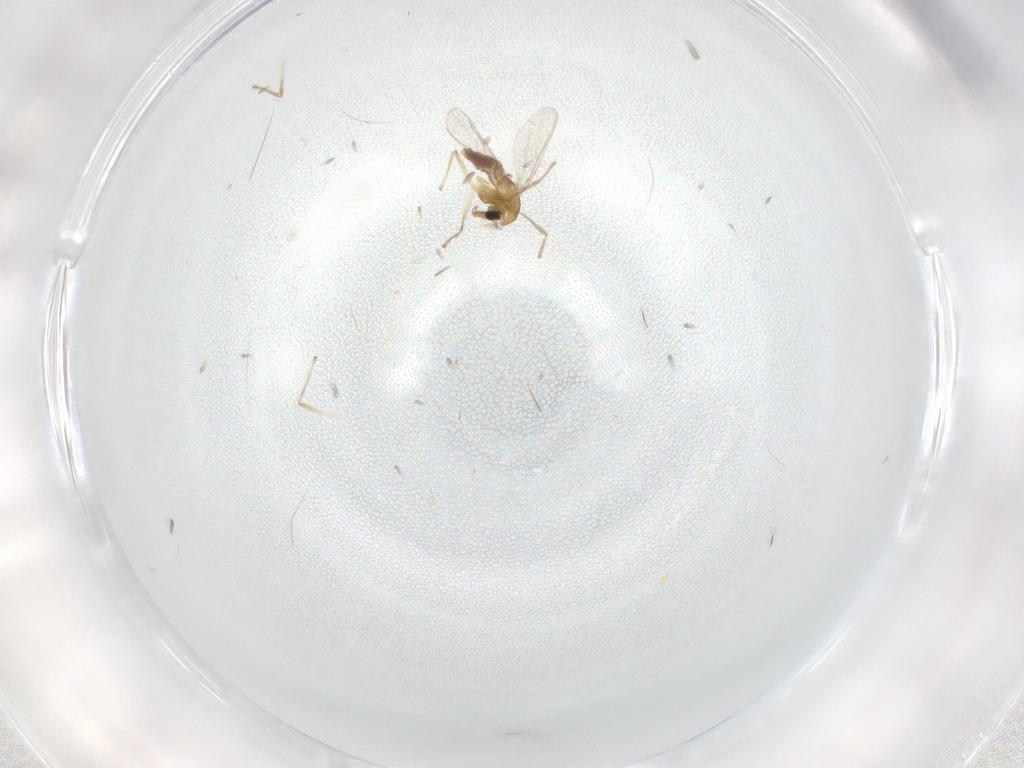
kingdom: Animalia
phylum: Arthropoda
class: Insecta
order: Diptera
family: Chironomidae
